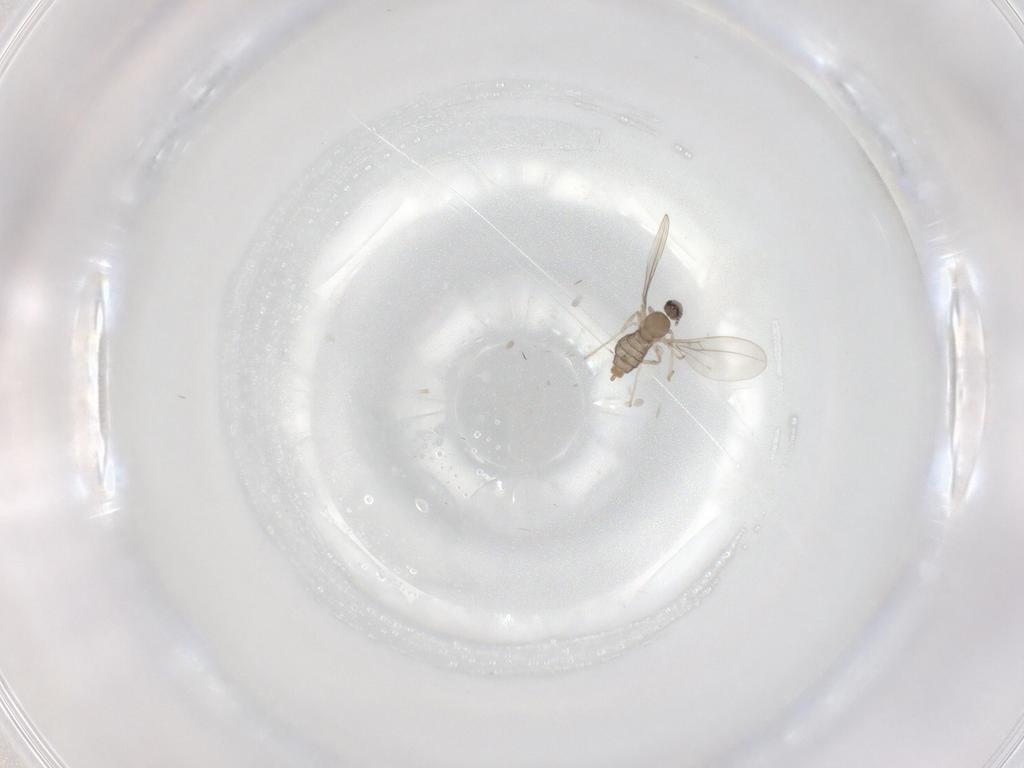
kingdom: Animalia
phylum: Arthropoda
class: Insecta
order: Diptera
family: Cecidomyiidae
